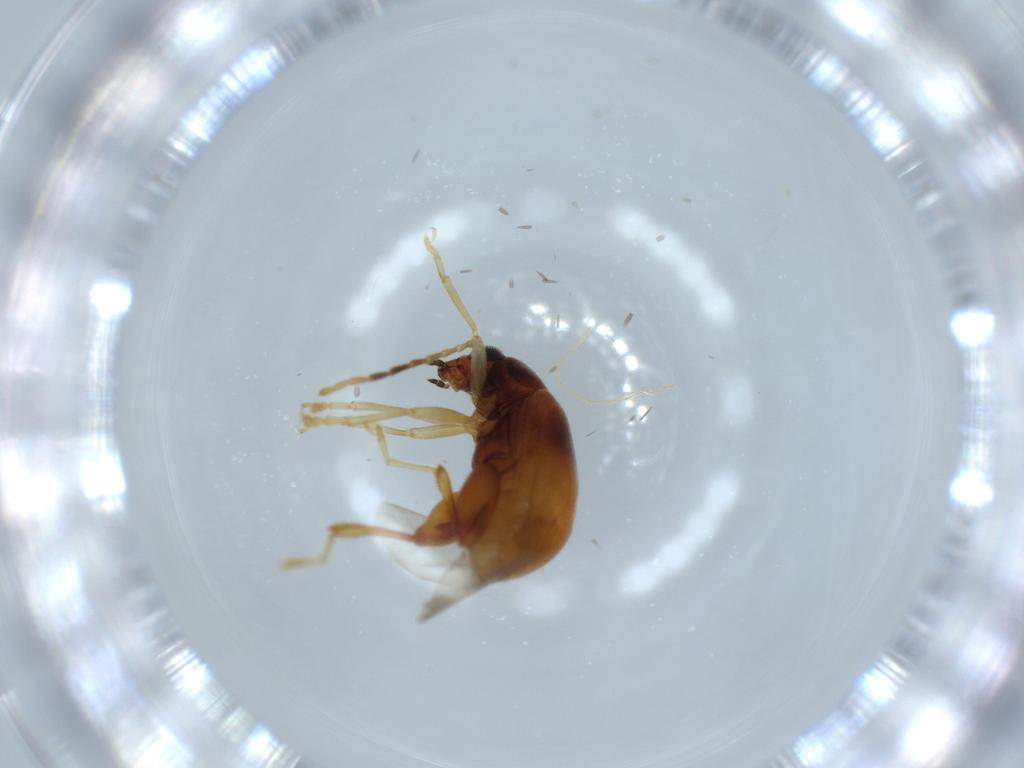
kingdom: Animalia
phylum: Arthropoda
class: Insecta
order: Coleoptera
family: Chrysomelidae
